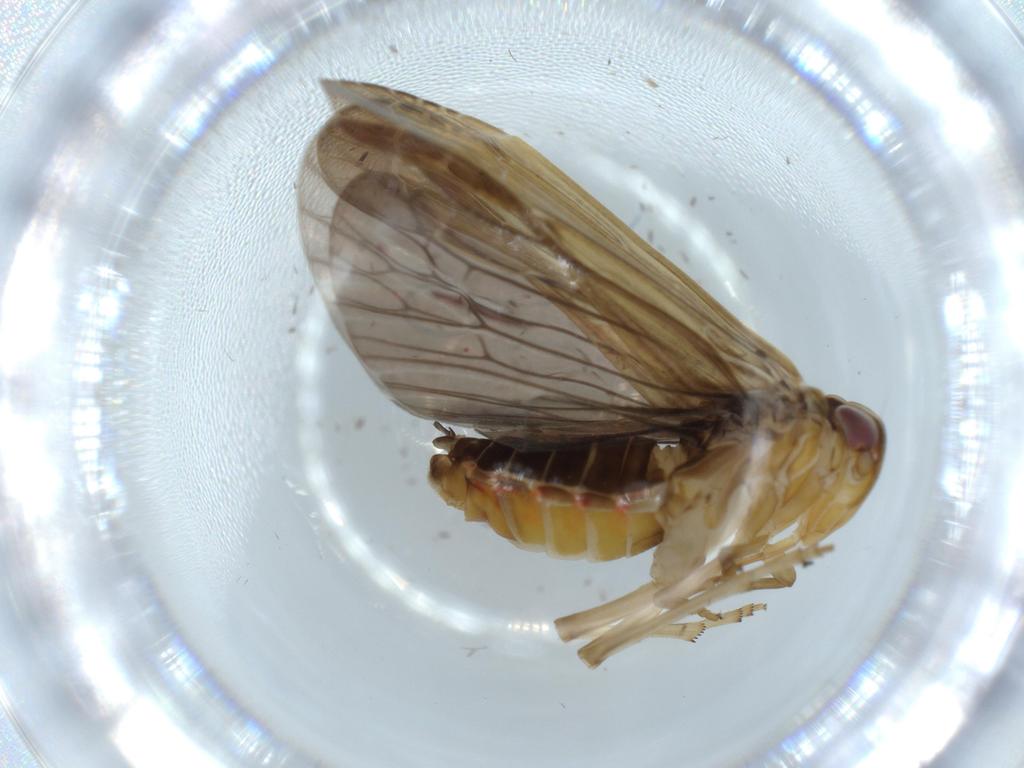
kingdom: Animalia
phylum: Arthropoda
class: Insecta
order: Hemiptera
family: Achilidae
